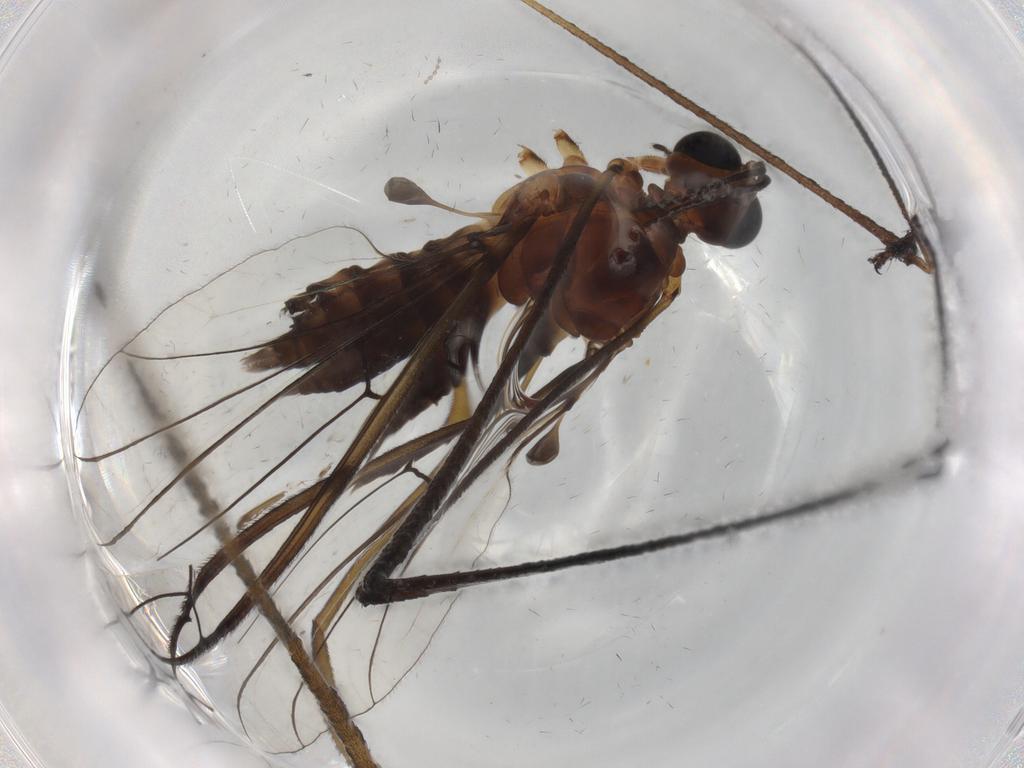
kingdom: Animalia
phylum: Arthropoda
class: Insecta
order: Diptera
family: Blephariceridae
